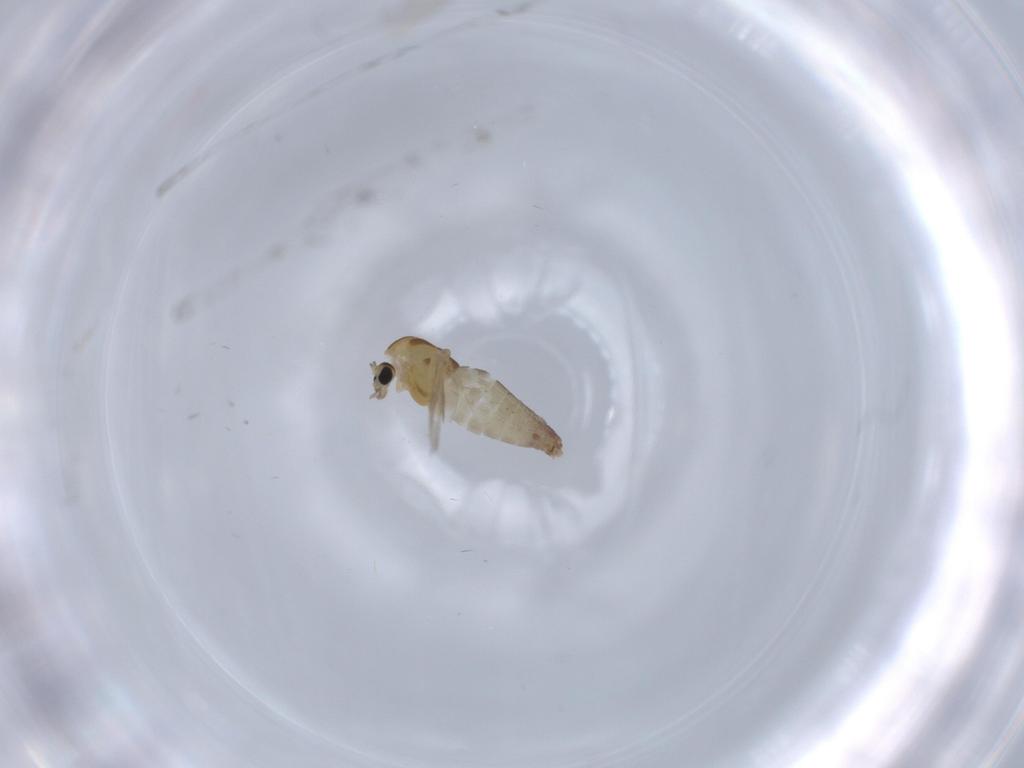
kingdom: Animalia
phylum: Arthropoda
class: Insecta
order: Diptera
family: Chironomidae
